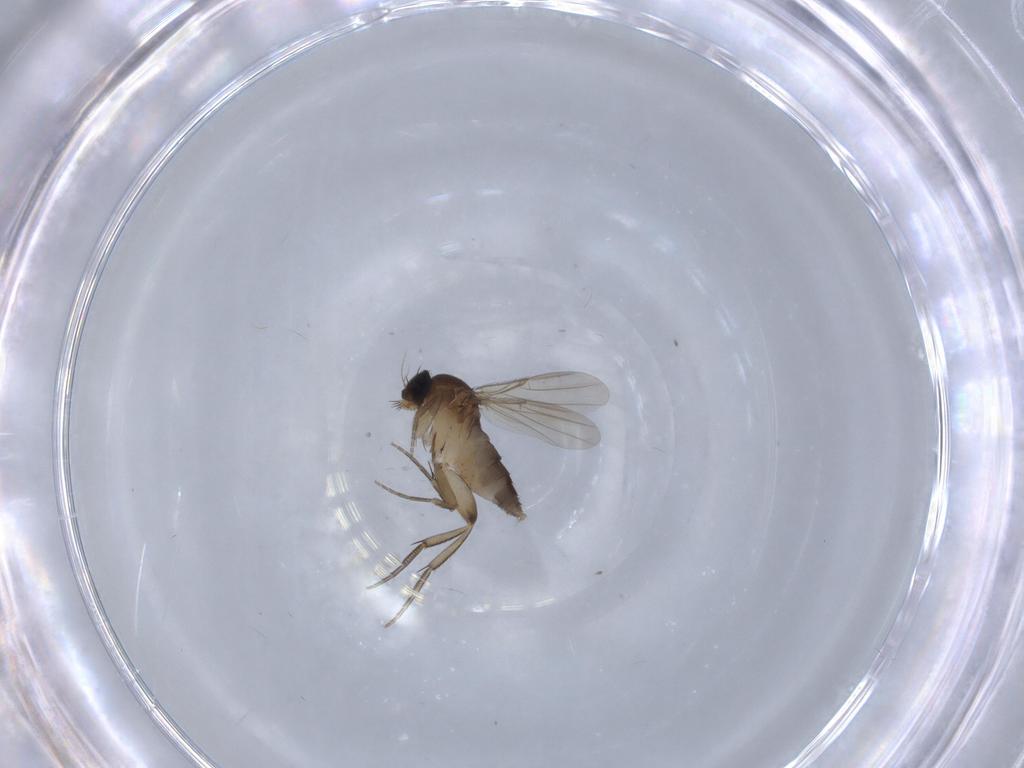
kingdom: Animalia
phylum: Arthropoda
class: Insecta
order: Diptera
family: Phoridae
